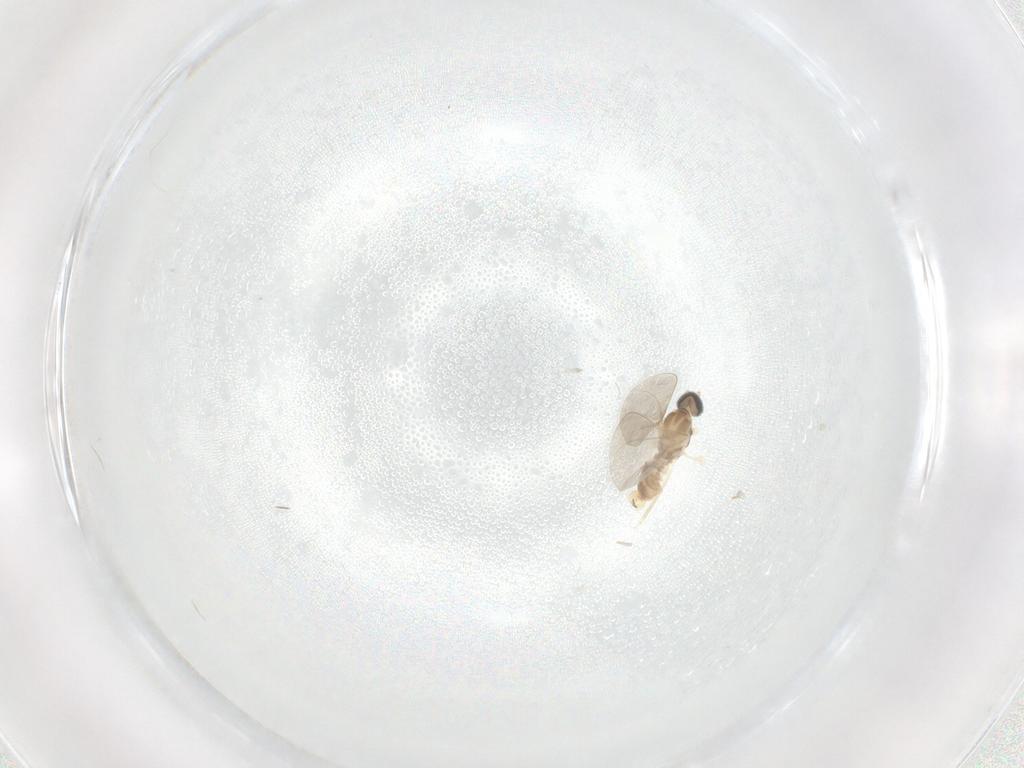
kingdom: Animalia
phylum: Arthropoda
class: Insecta
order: Diptera
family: Cecidomyiidae
